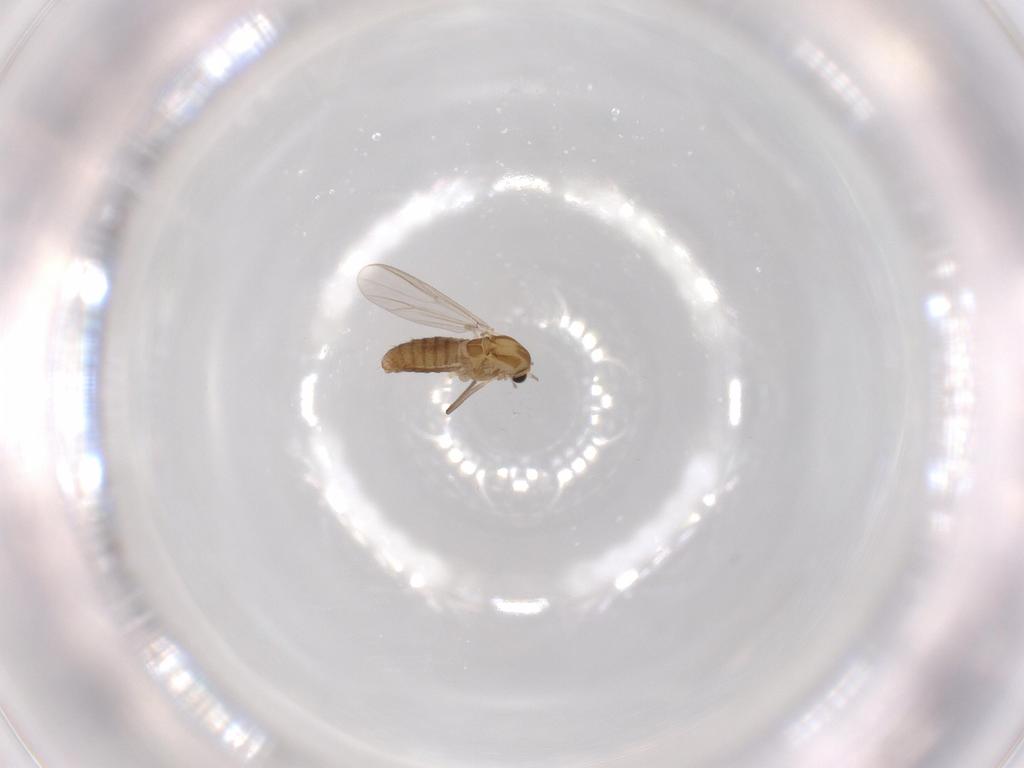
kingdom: Animalia
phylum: Arthropoda
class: Insecta
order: Diptera
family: Chironomidae
